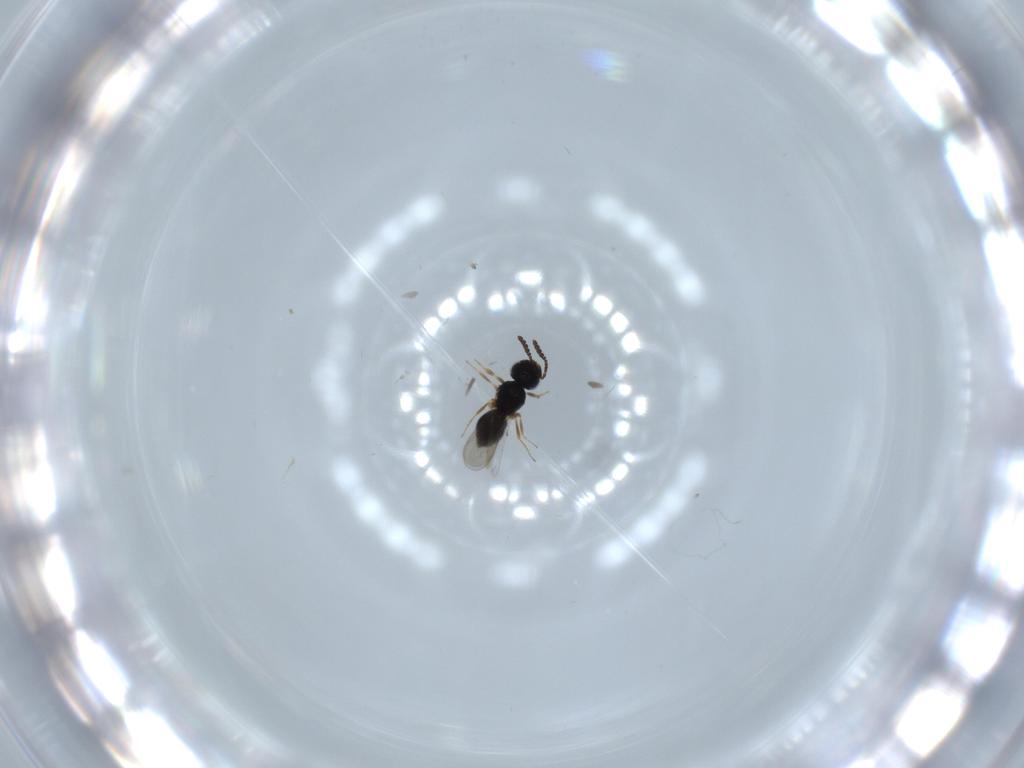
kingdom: Animalia
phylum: Arthropoda
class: Insecta
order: Hymenoptera
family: Scelionidae
